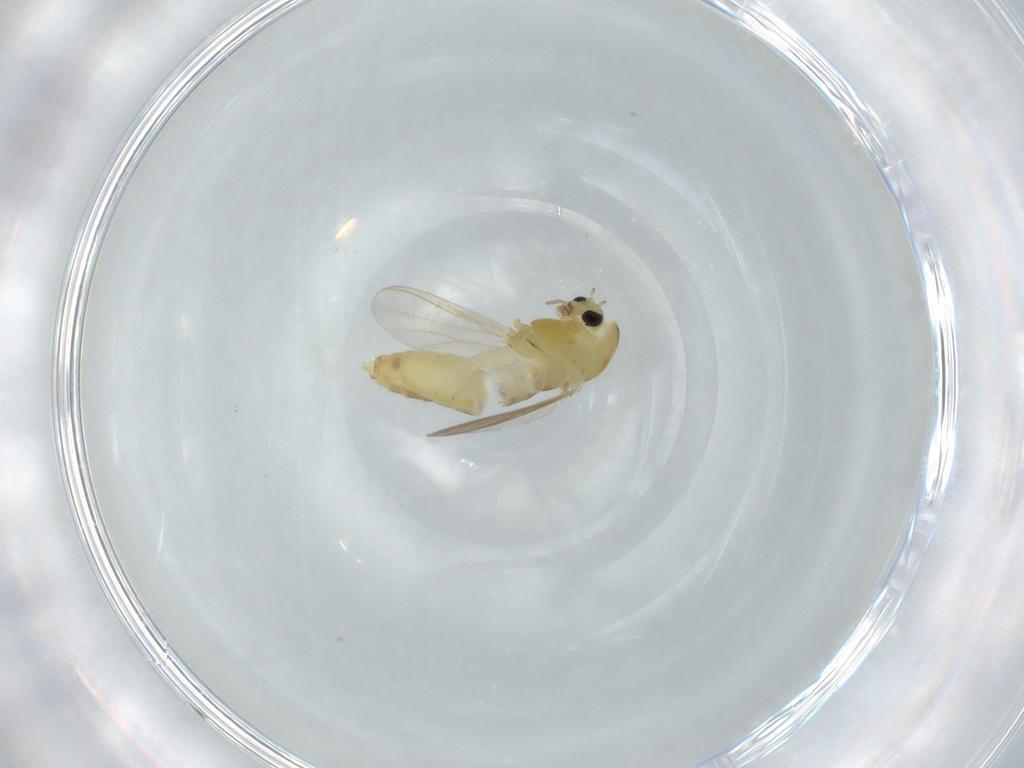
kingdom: Animalia
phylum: Arthropoda
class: Insecta
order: Diptera
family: Chironomidae
